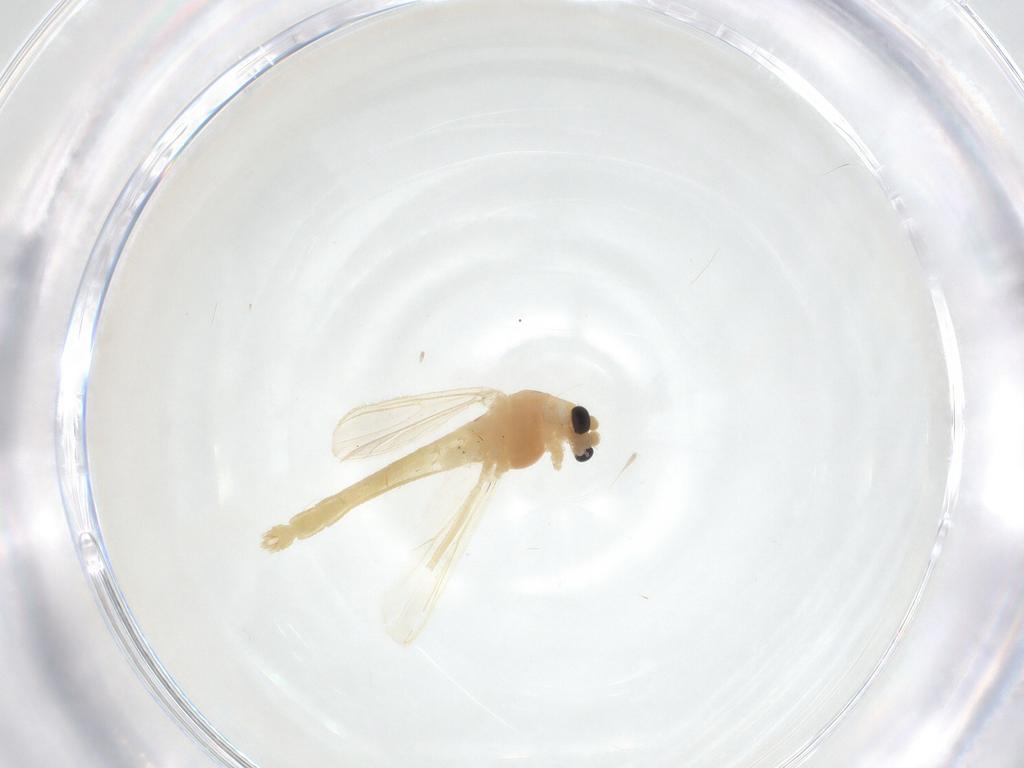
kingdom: Animalia
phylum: Arthropoda
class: Insecta
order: Diptera
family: Chironomidae
